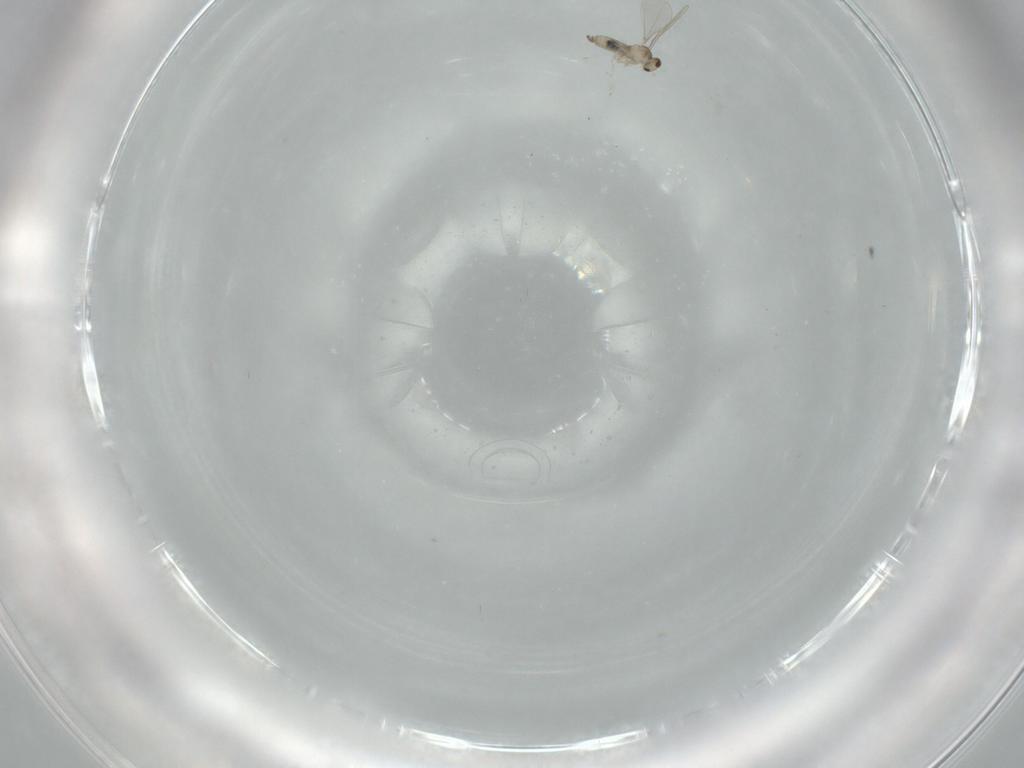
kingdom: Animalia
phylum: Arthropoda
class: Insecta
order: Diptera
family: Cecidomyiidae
